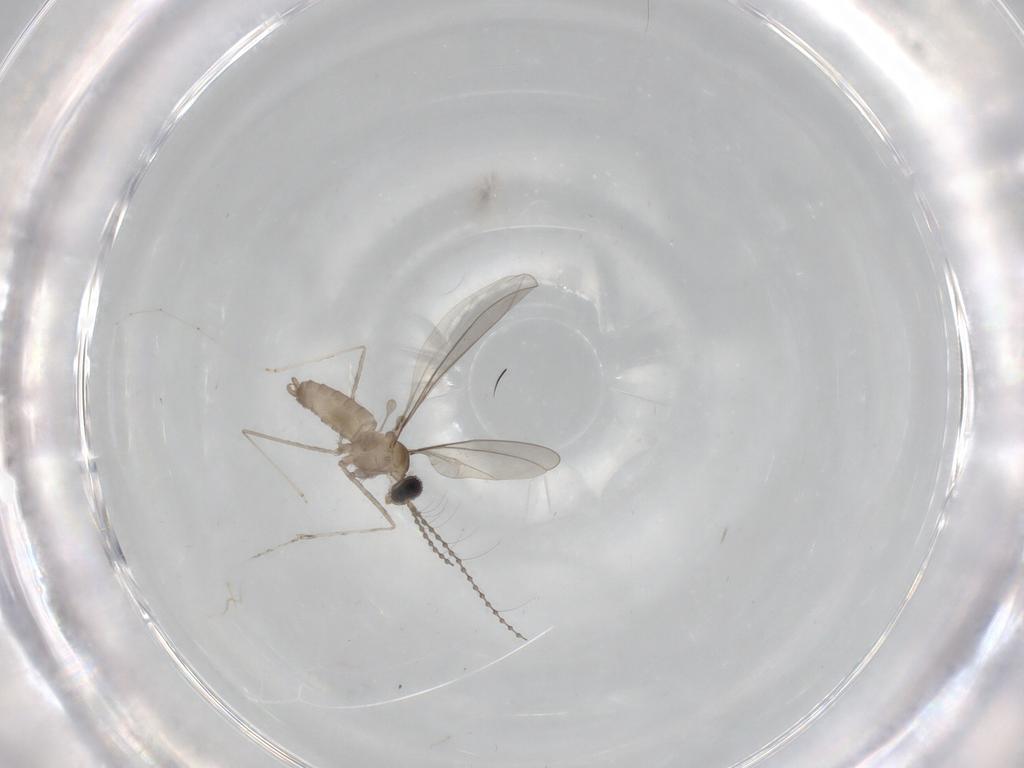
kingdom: Animalia
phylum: Arthropoda
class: Insecta
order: Diptera
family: Cecidomyiidae
